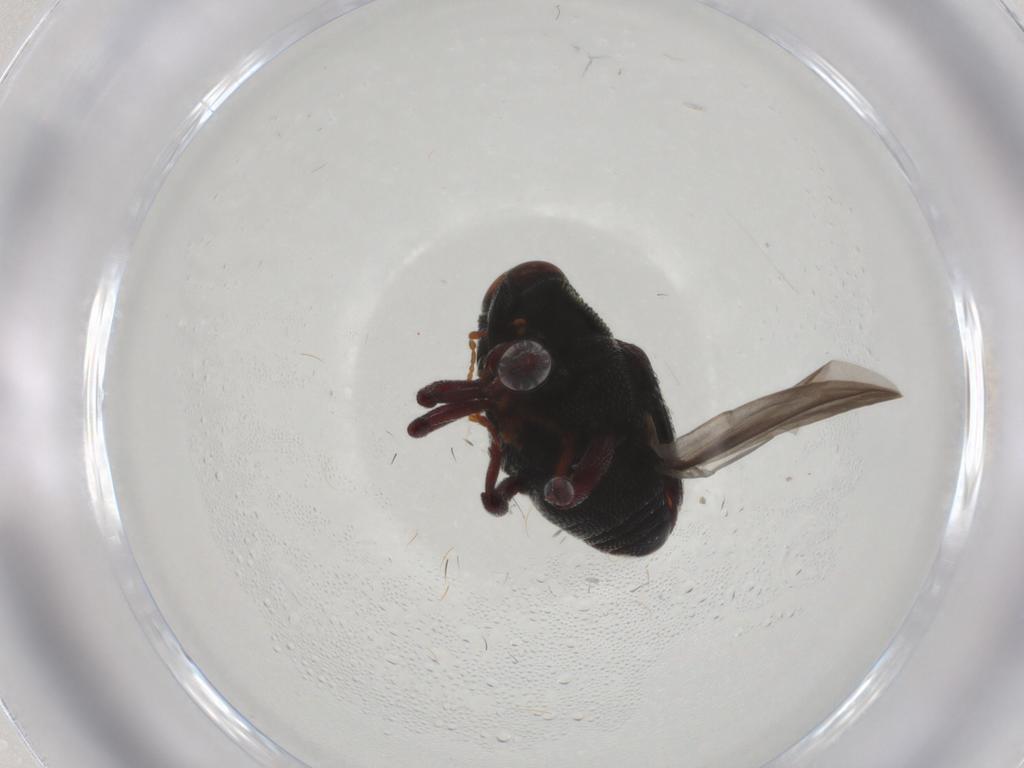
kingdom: Animalia
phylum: Arthropoda
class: Insecta
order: Coleoptera
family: Curculionidae
